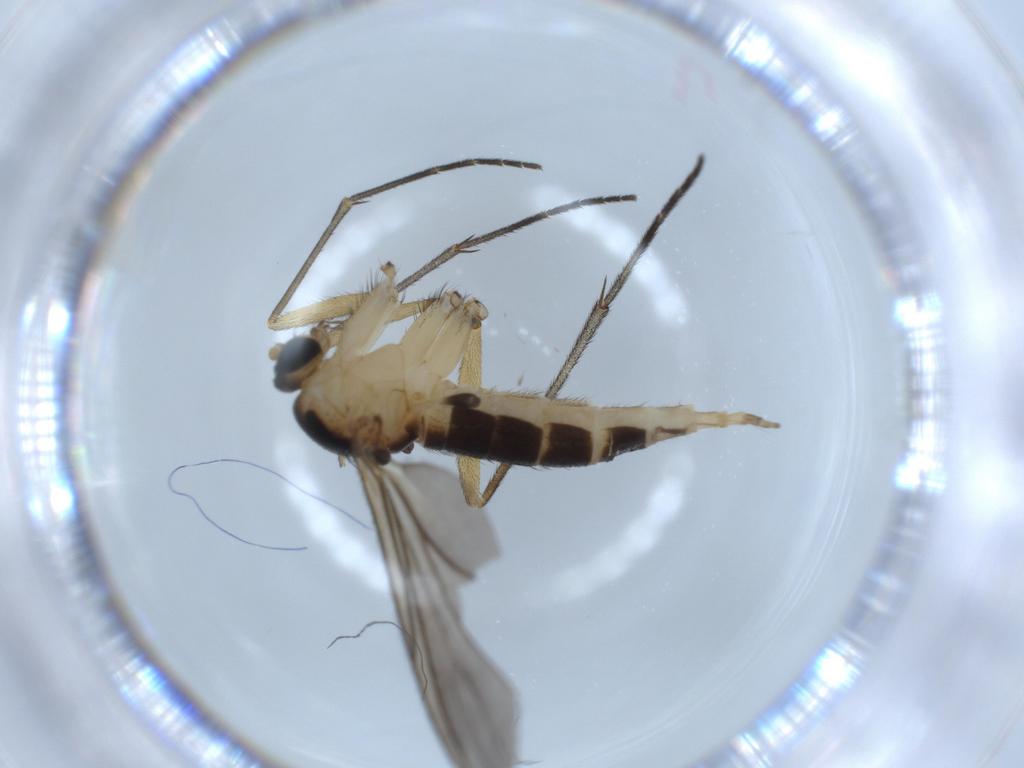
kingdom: Animalia
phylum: Arthropoda
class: Insecta
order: Diptera
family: Sciaridae
